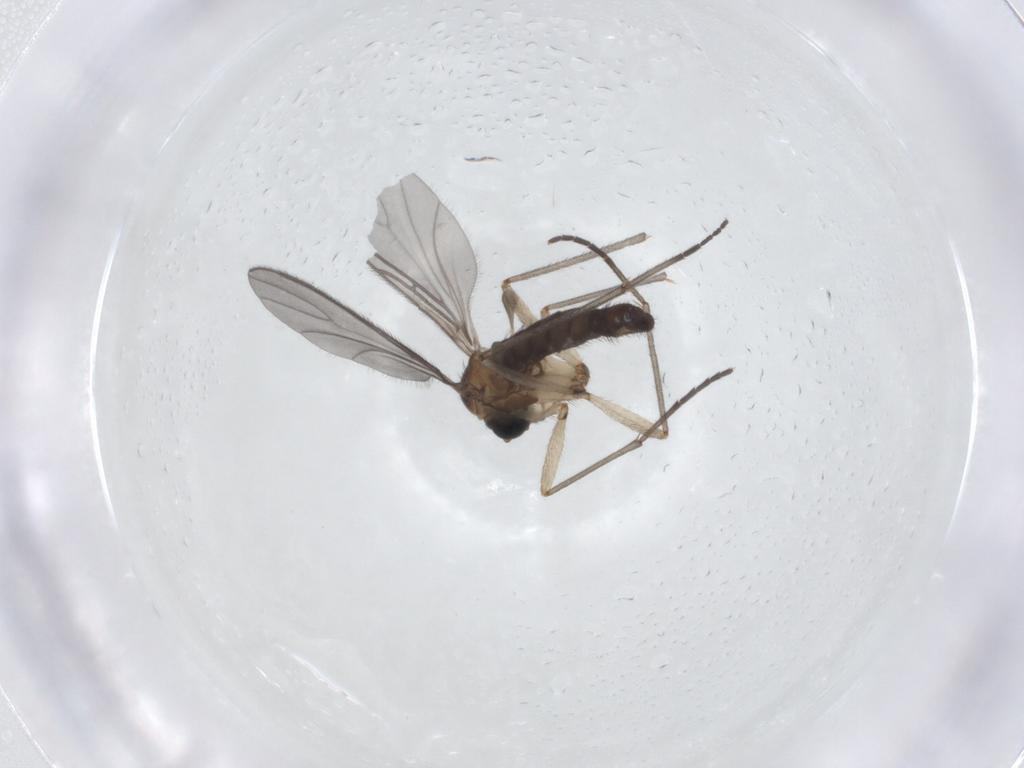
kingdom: Animalia
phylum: Arthropoda
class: Insecta
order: Diptera
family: Sciaridae
